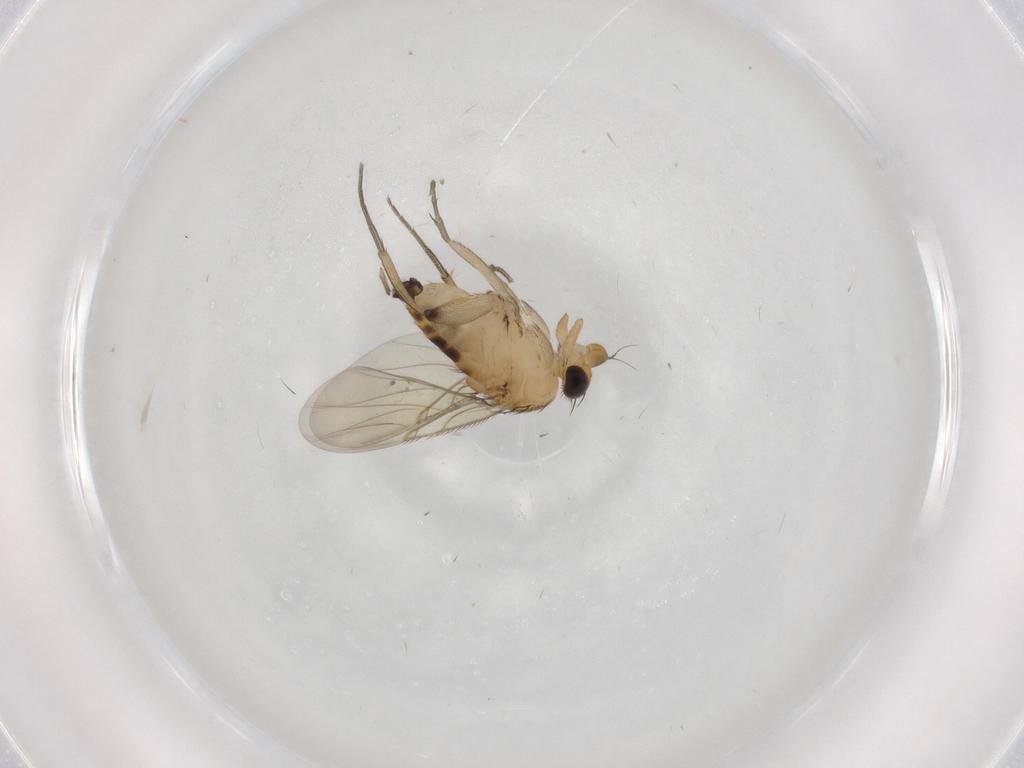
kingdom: Animalia
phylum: Arthropoda
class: Insecta
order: Diptera
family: Phoridae
